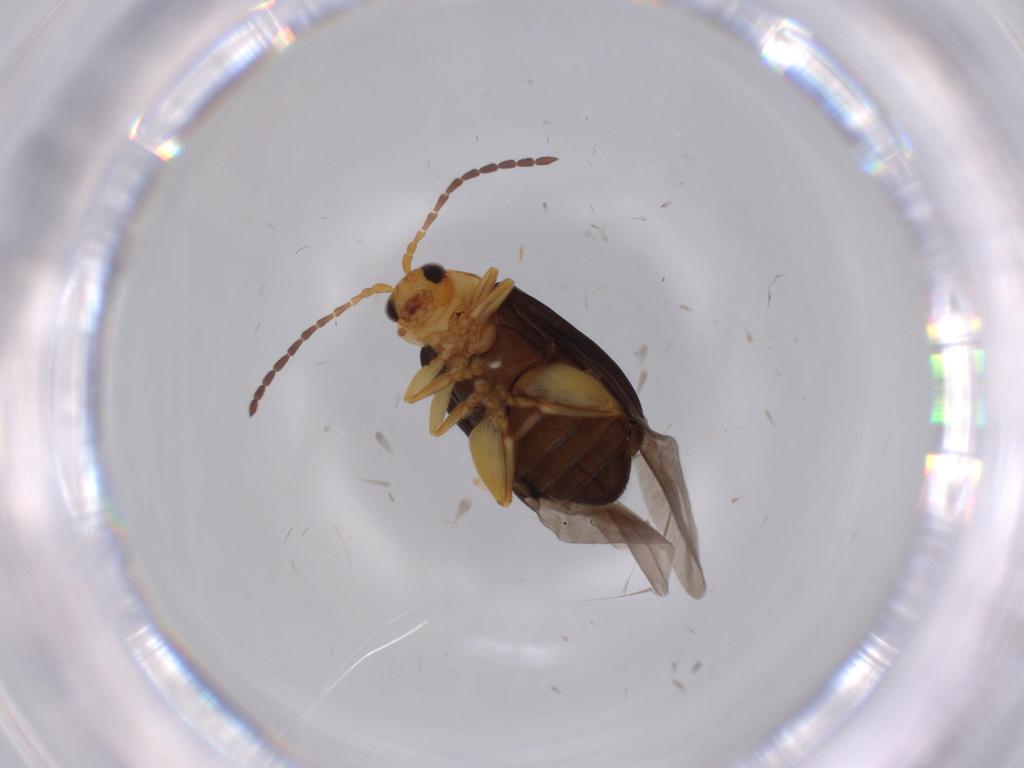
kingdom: Animalia
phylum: Arthropoda
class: Insecta
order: Coleoptera
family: Chrysomelidae
